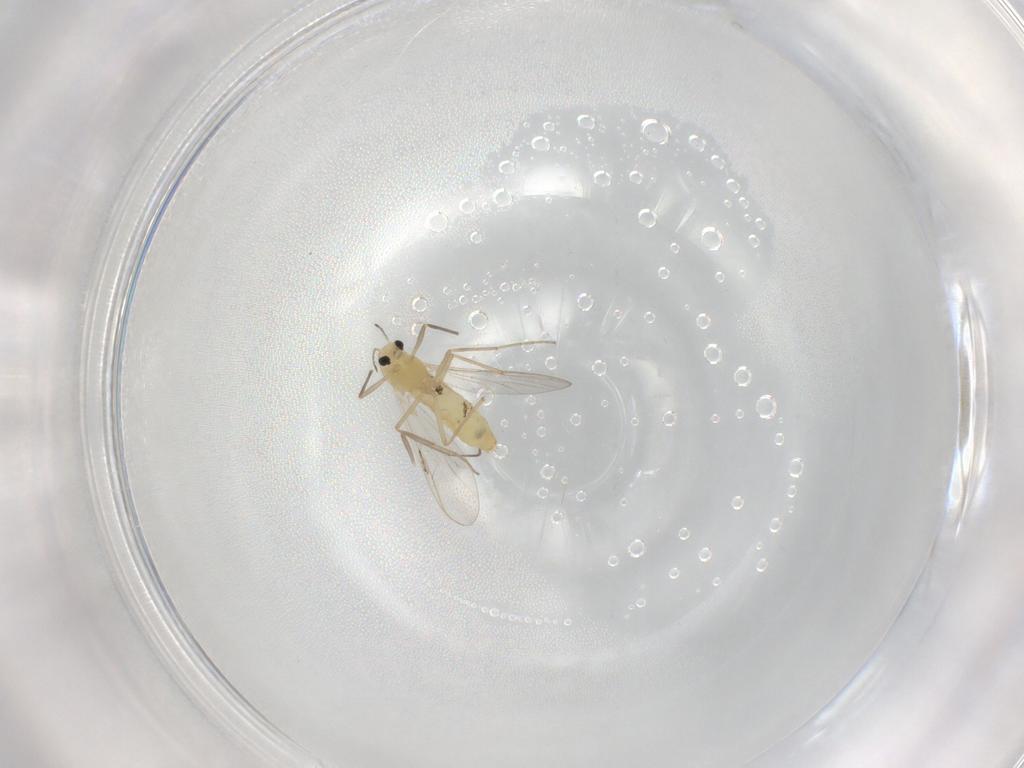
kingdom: Animalia
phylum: Arthropoda
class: Insecta
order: Diptera
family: Chironomidae
